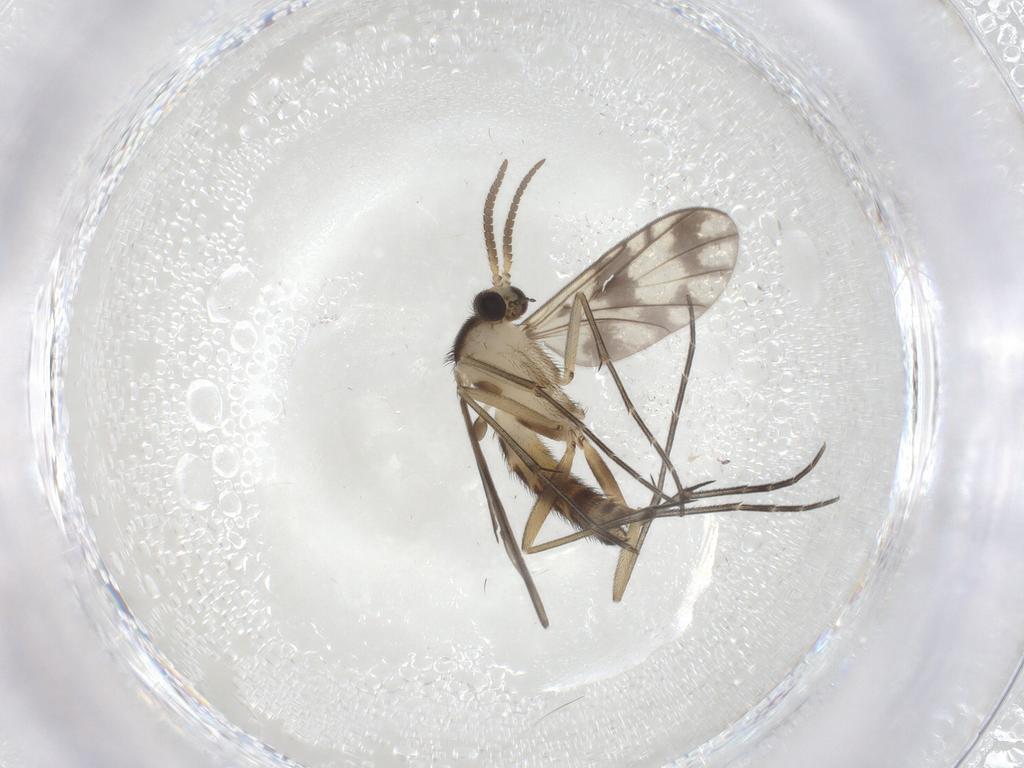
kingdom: Animalia
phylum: Arthropoda
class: Insecta
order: Diptera
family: Keroplatidae
